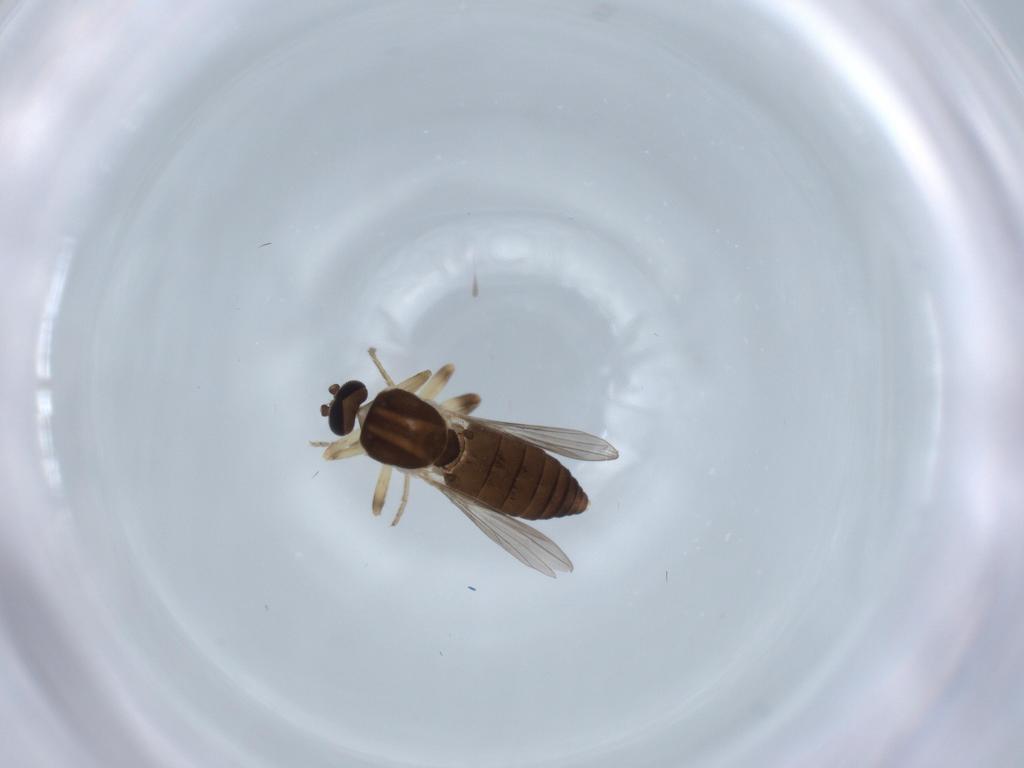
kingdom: Animalia
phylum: Arthropoda
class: Insecta
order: Diptera
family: Ceratopogonidae
